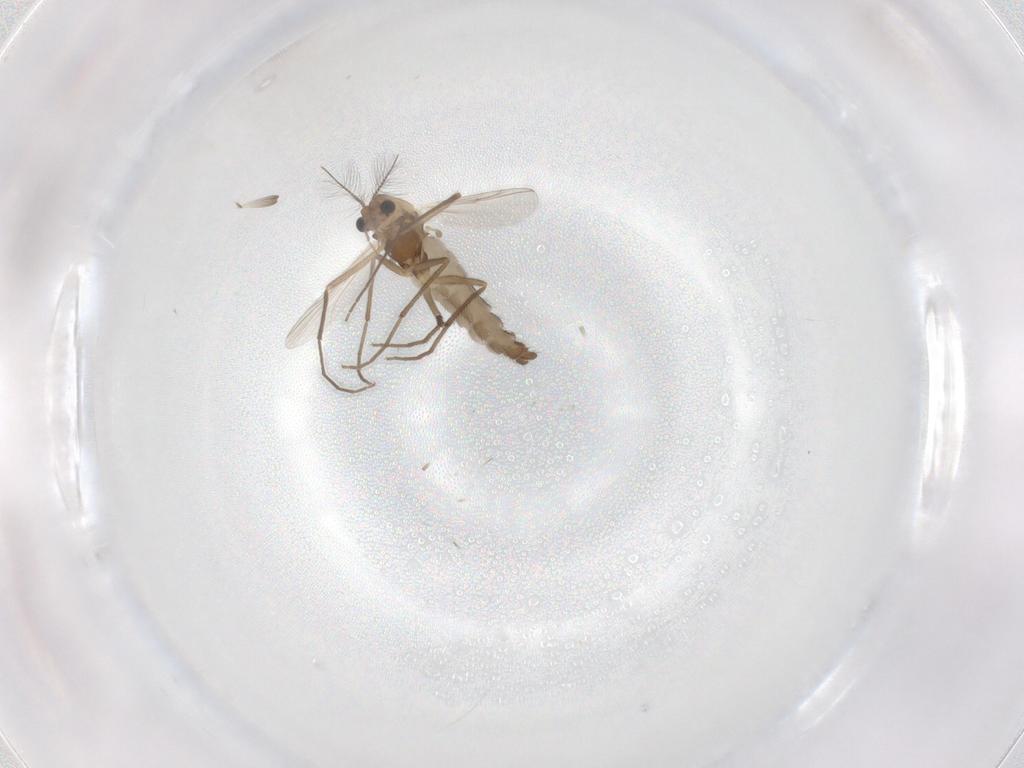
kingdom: Animalia
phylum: Arthropoda
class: Insecta
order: Diptera
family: Chironomidae
